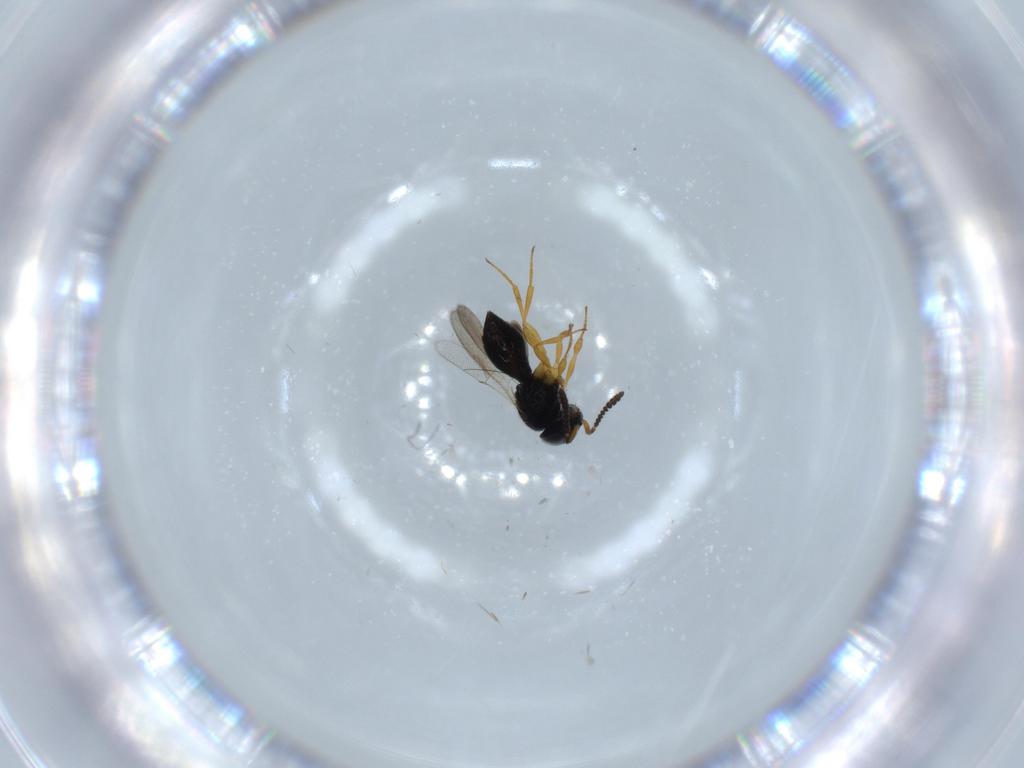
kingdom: Animalia
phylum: Arthropoda
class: Insecta
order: Hymenoptera
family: Scelionidae
